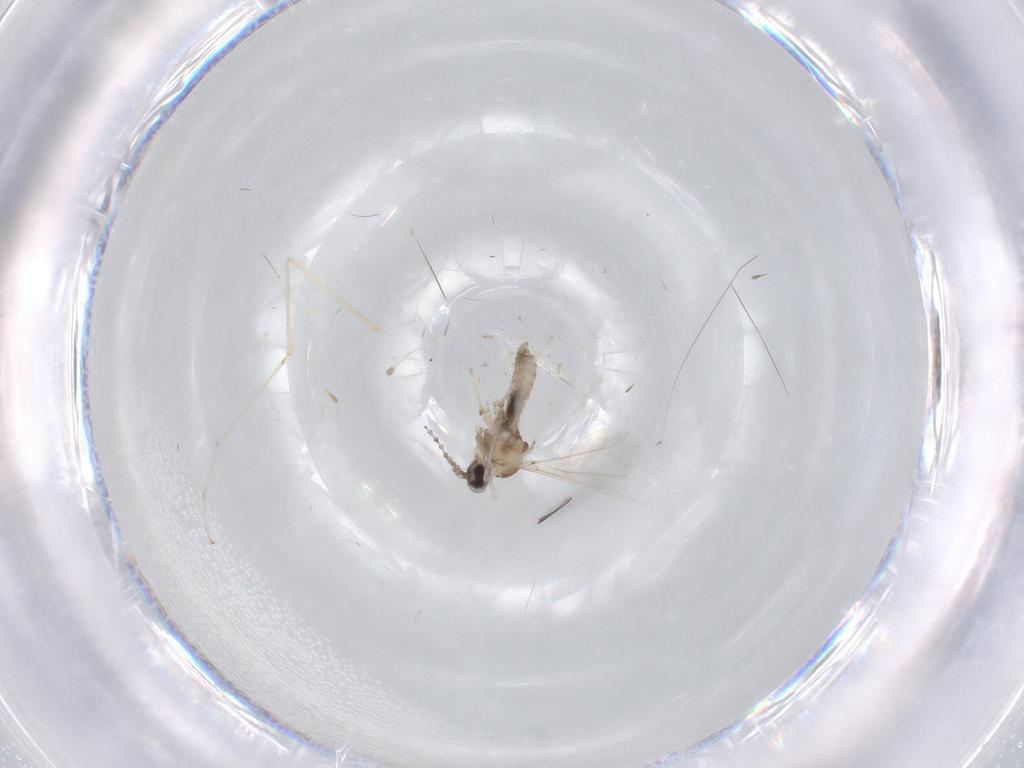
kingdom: Animalia
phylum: Arthropoda
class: Insecta
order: Diptera
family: Cecidomyiidae
